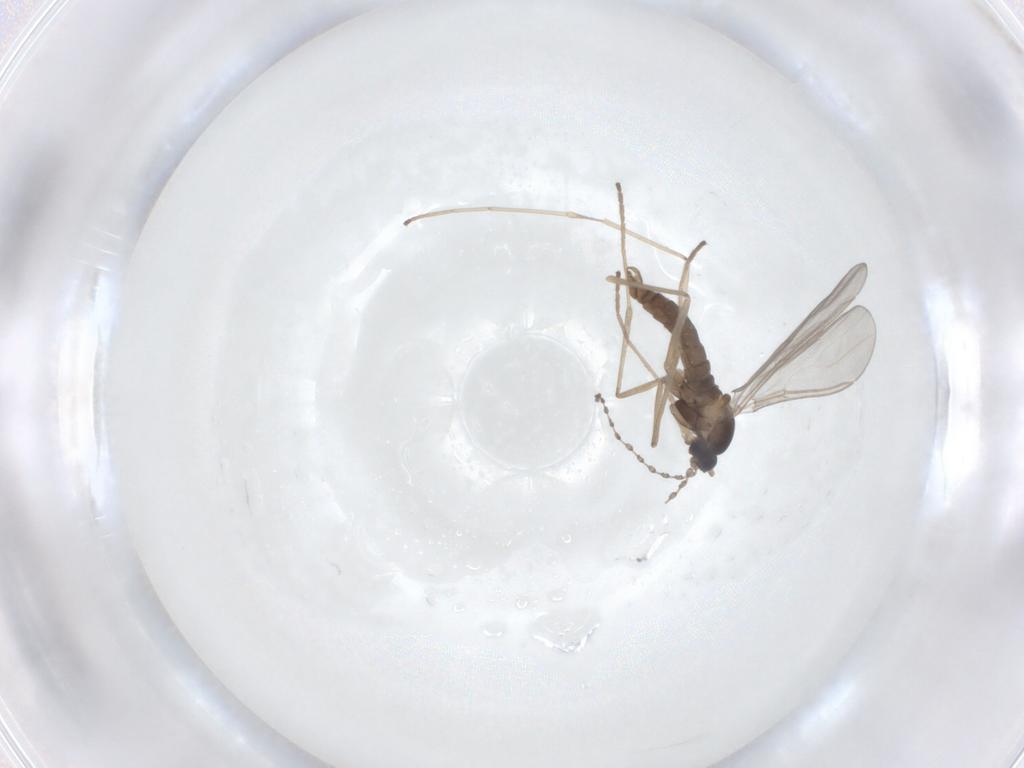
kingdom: Animalia
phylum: Arthropoda
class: Insecta
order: Diptera
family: Cecidomyiidae
